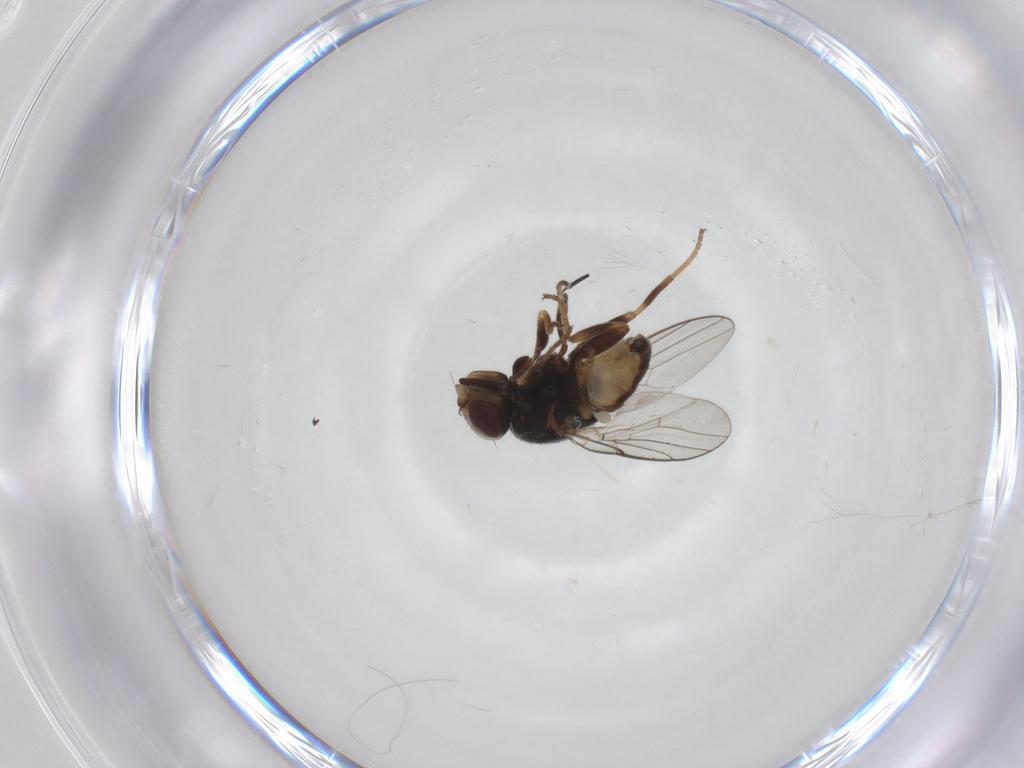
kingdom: Animalia
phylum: Arthropoda
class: Insecta
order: Diptera
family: Chloropidae
